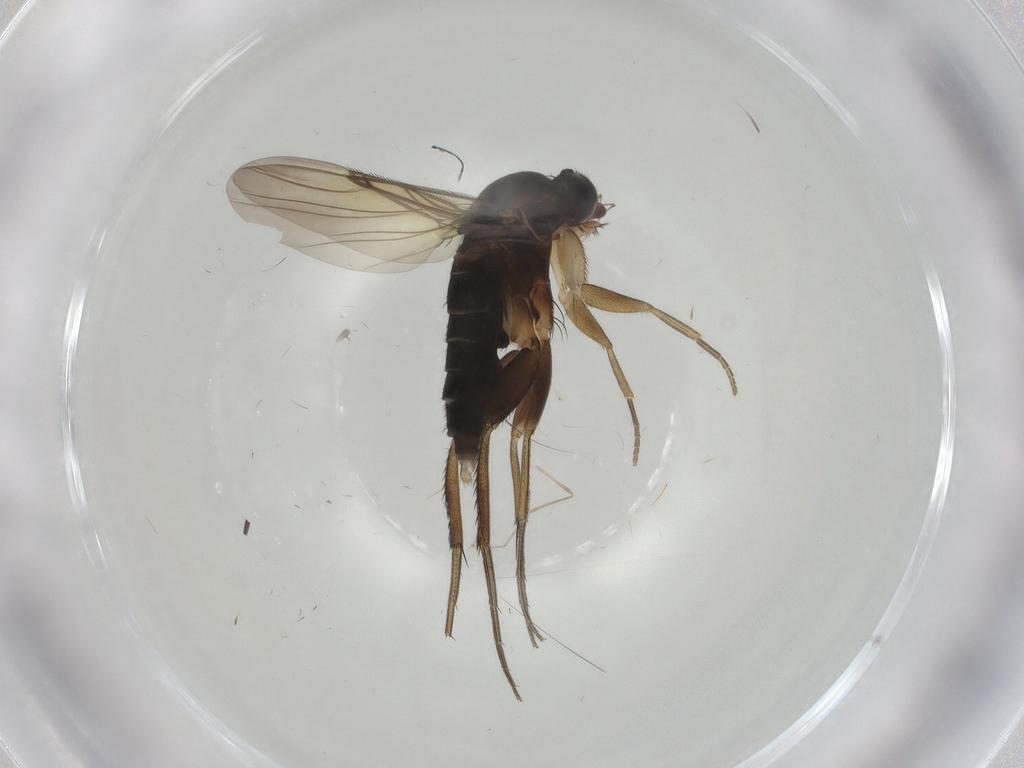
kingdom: Animalia
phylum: Arthropoda
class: Insecta
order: Diptera
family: Phoridae
